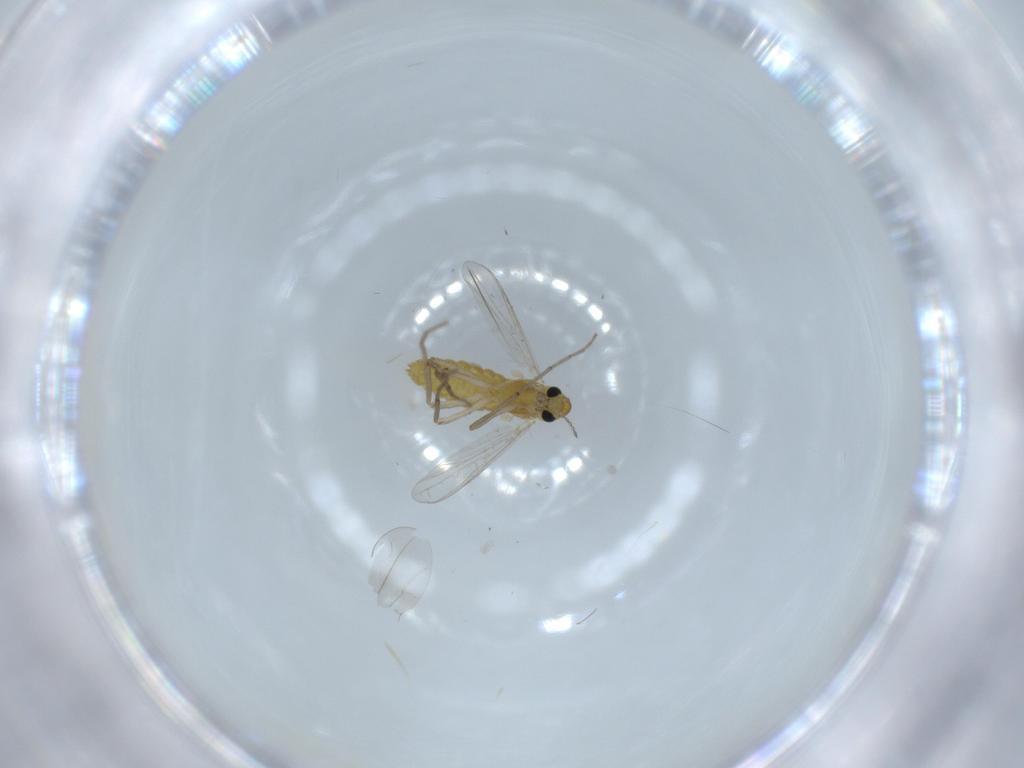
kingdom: Animalia
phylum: Arthropoda
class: Insecta
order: Diptera
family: Chironomidae
